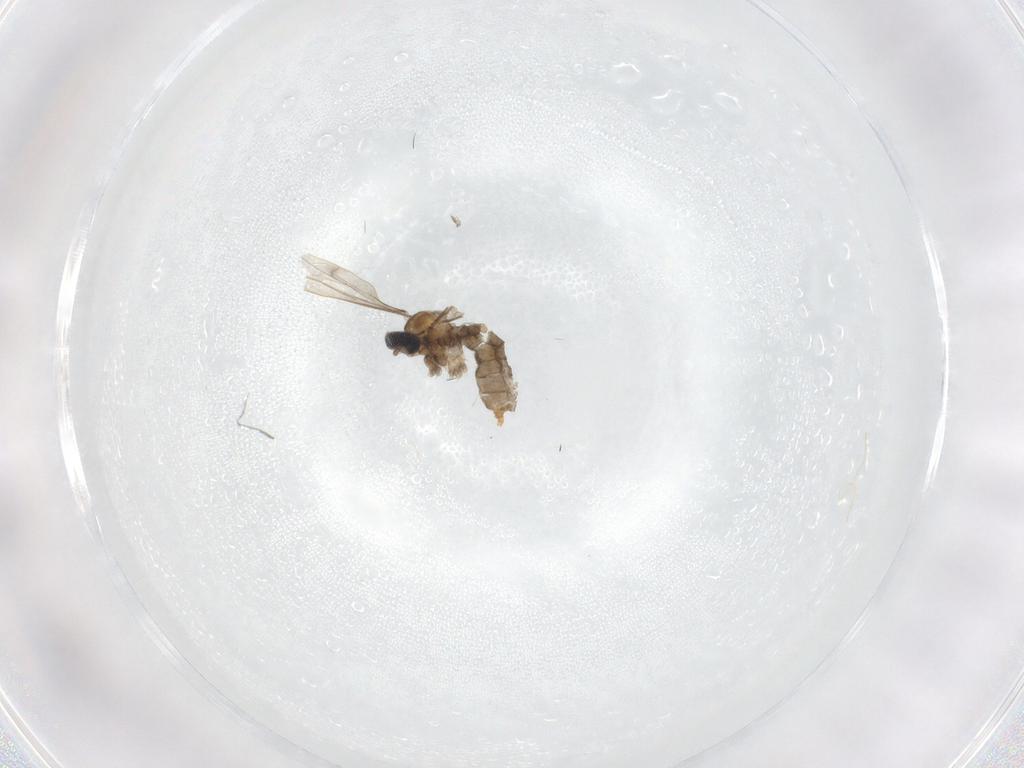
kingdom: Animalia
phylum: Arthropoda
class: Insecta
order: Diptera
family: Cecidomyiidae
